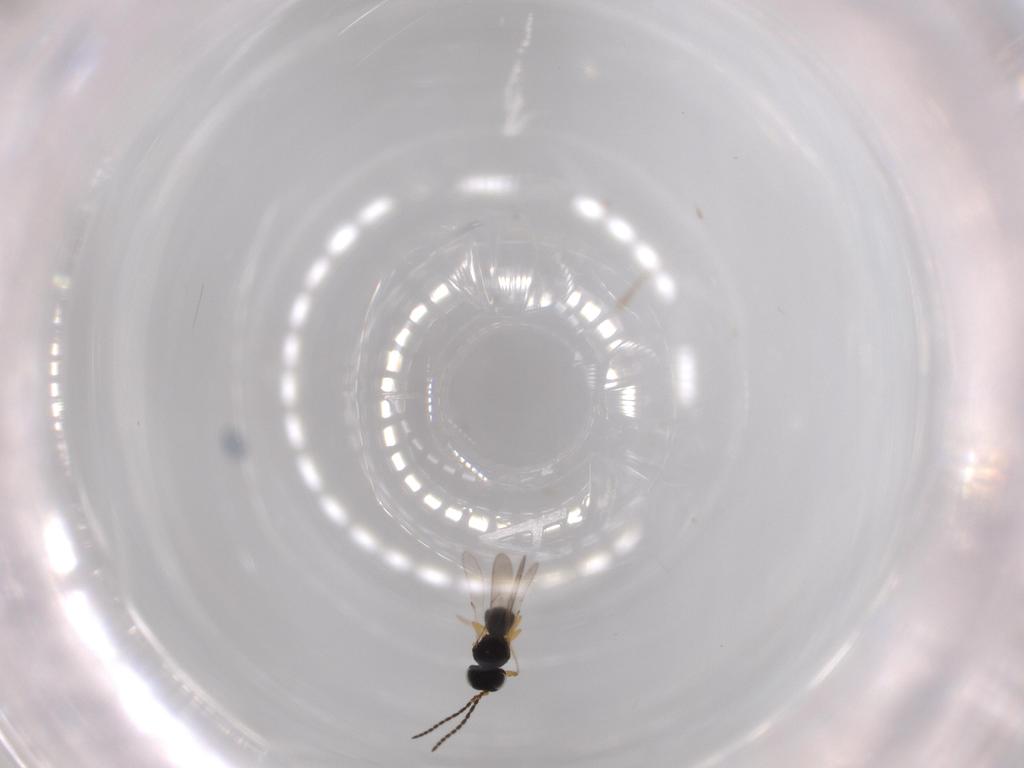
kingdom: Animalia
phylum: Arthropoda
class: Insecta
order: Hymenoptera
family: Scelionidae
